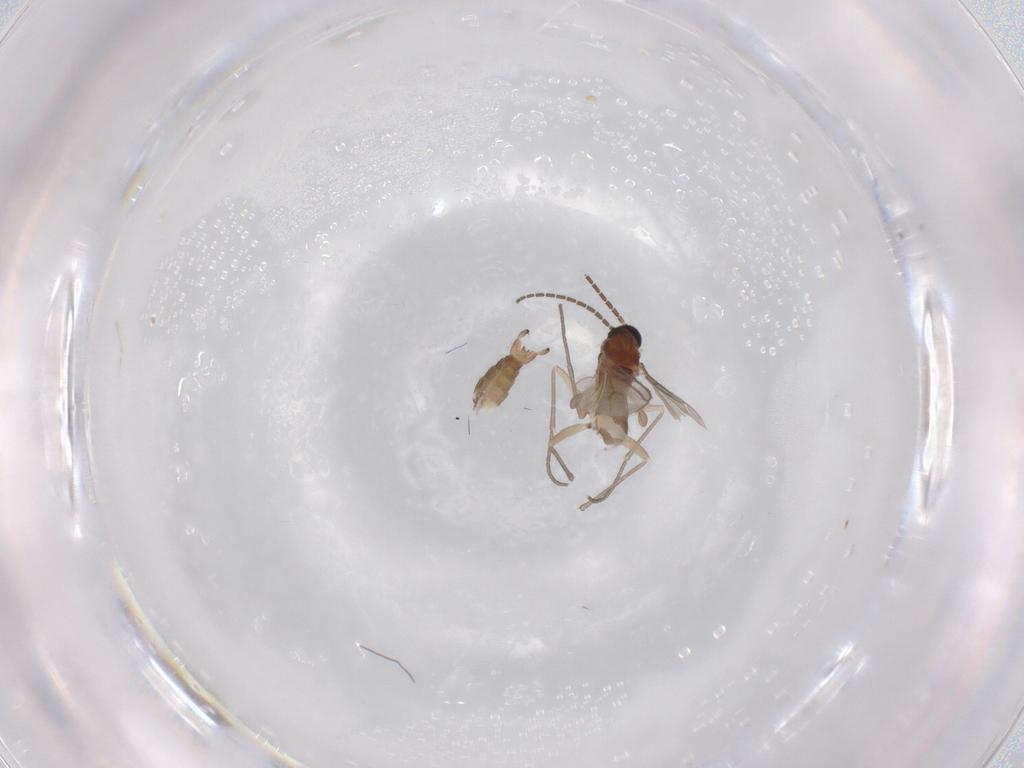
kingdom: Animalia
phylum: Arthropoda
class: Insecta
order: Diptera
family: Sciaridae
